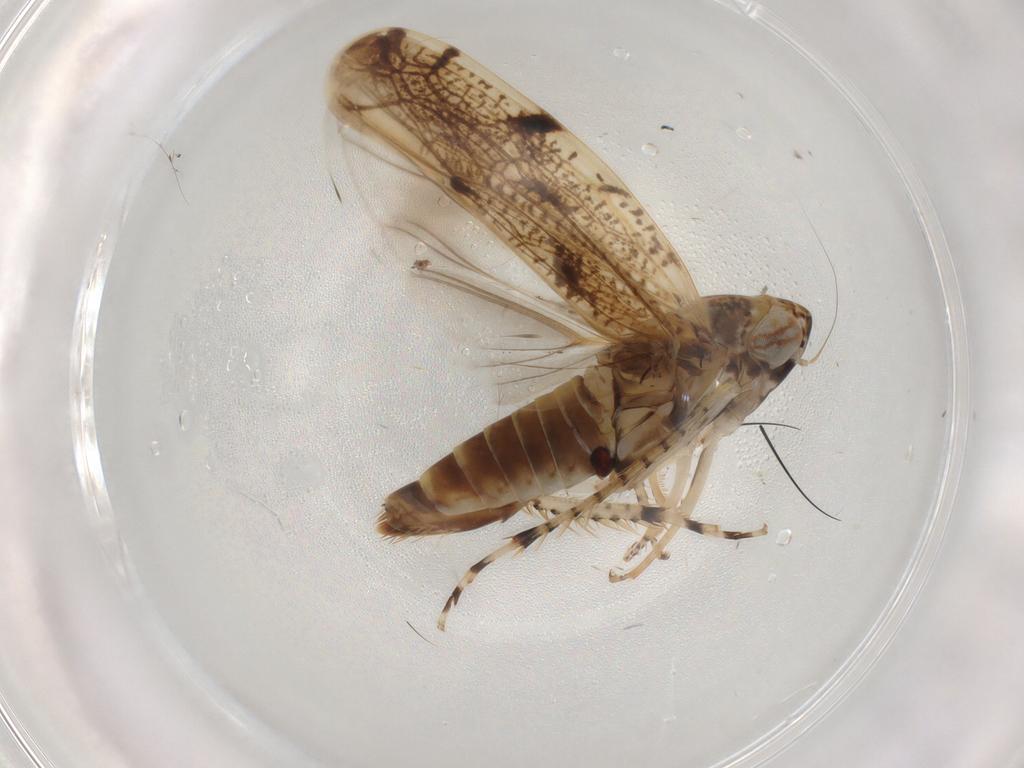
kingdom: Animalia
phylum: Arthropoda
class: Insecta
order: Hemiptera
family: Cicadellidae
